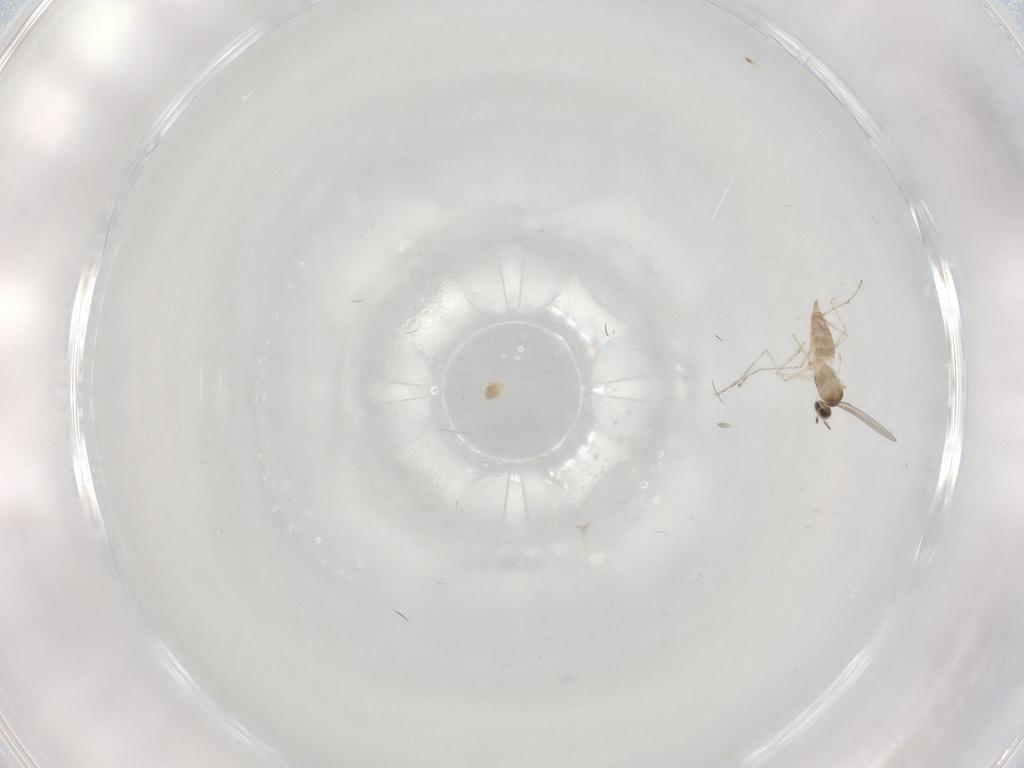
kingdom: Animalia
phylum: Arthropoda
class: Insecta
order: Diptera
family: Cecidomyiidae
